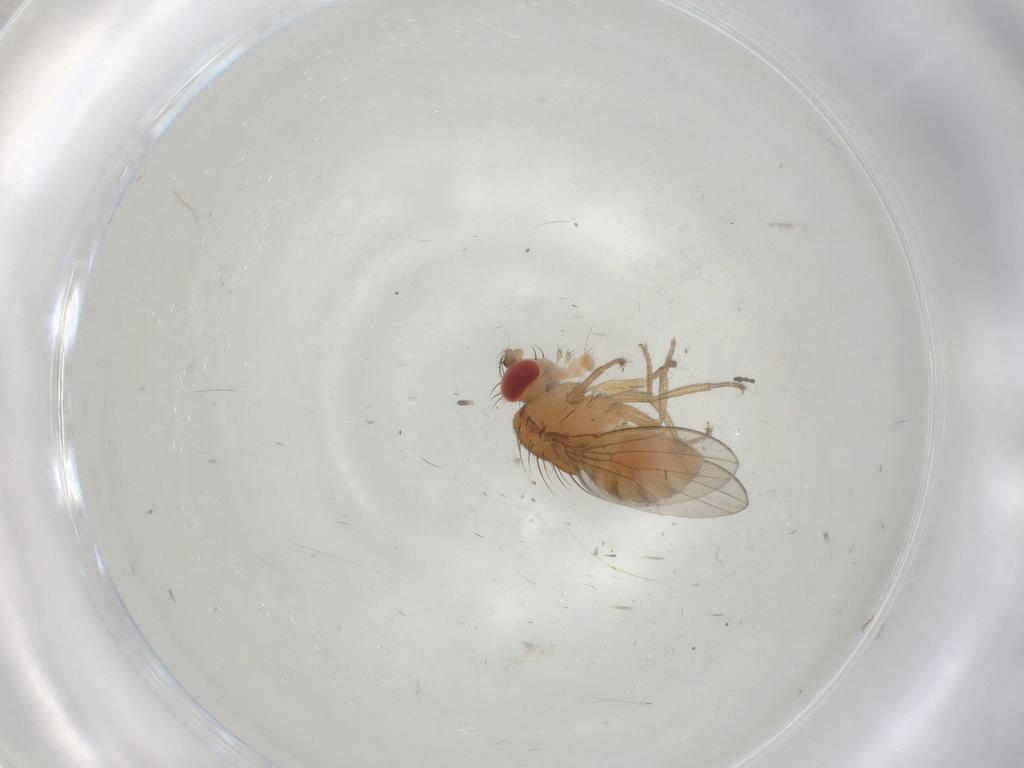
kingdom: Animalia
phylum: Arthropoda
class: Insecta
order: Diptera
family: Drosophilidae
